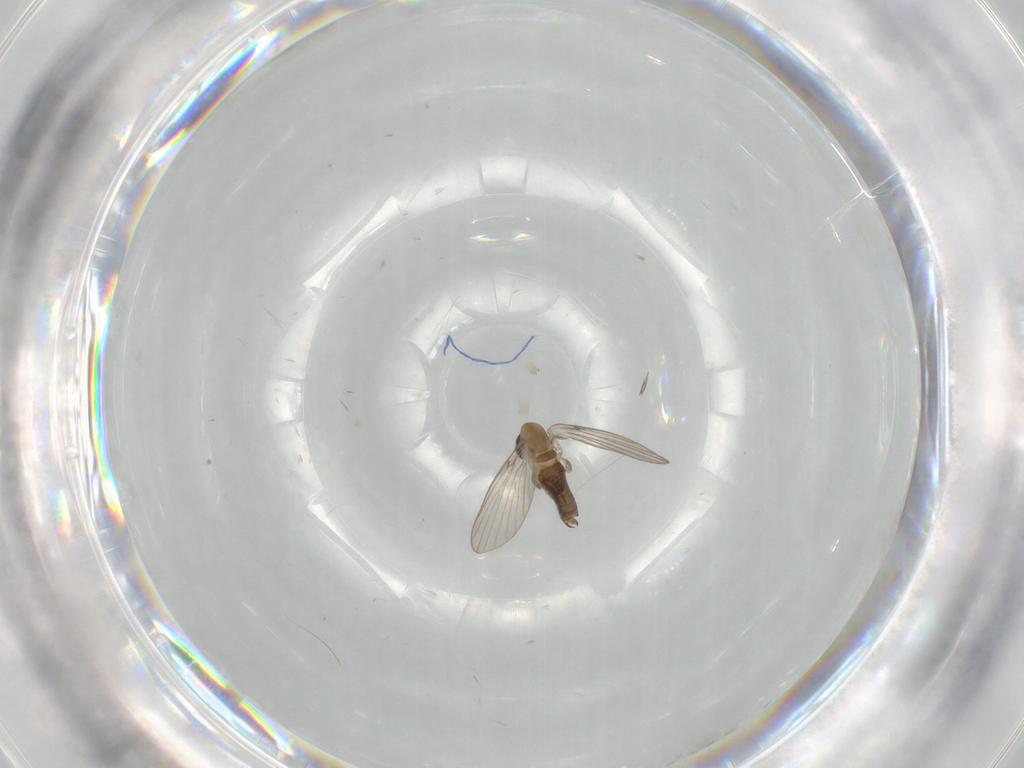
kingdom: Animalia
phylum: Arthropoda
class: Insecta
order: Diptera
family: Psychodidae
